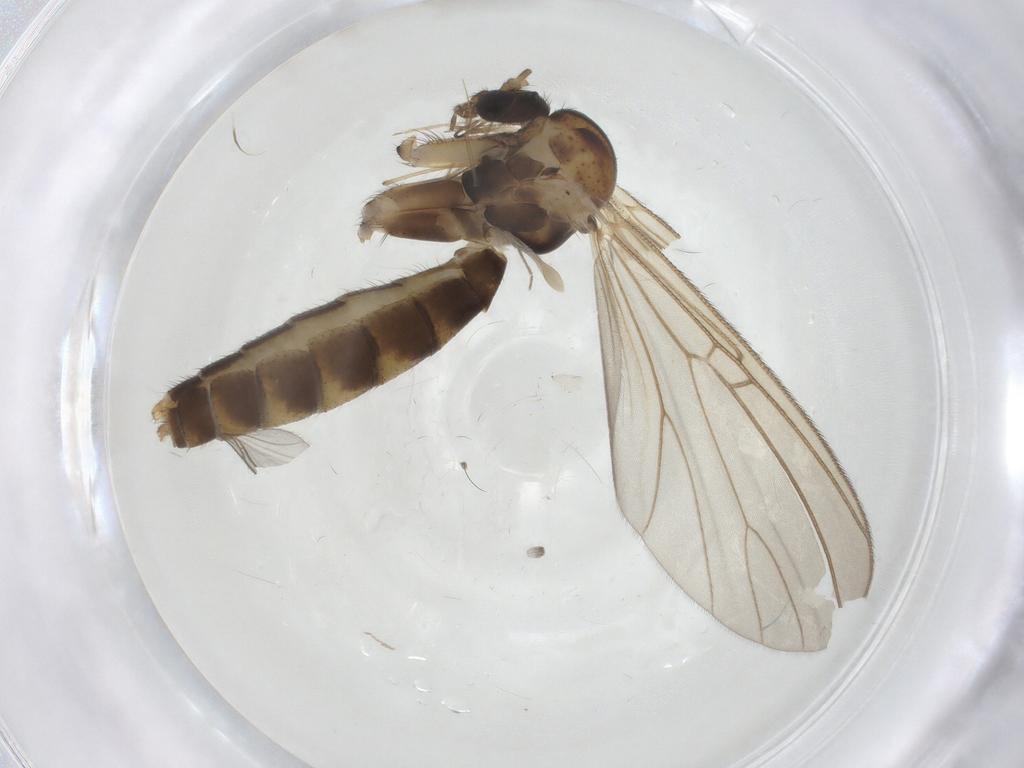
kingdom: Animalia
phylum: Arthropoda
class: Insecta
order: Diptera
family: Mycetophilidae
